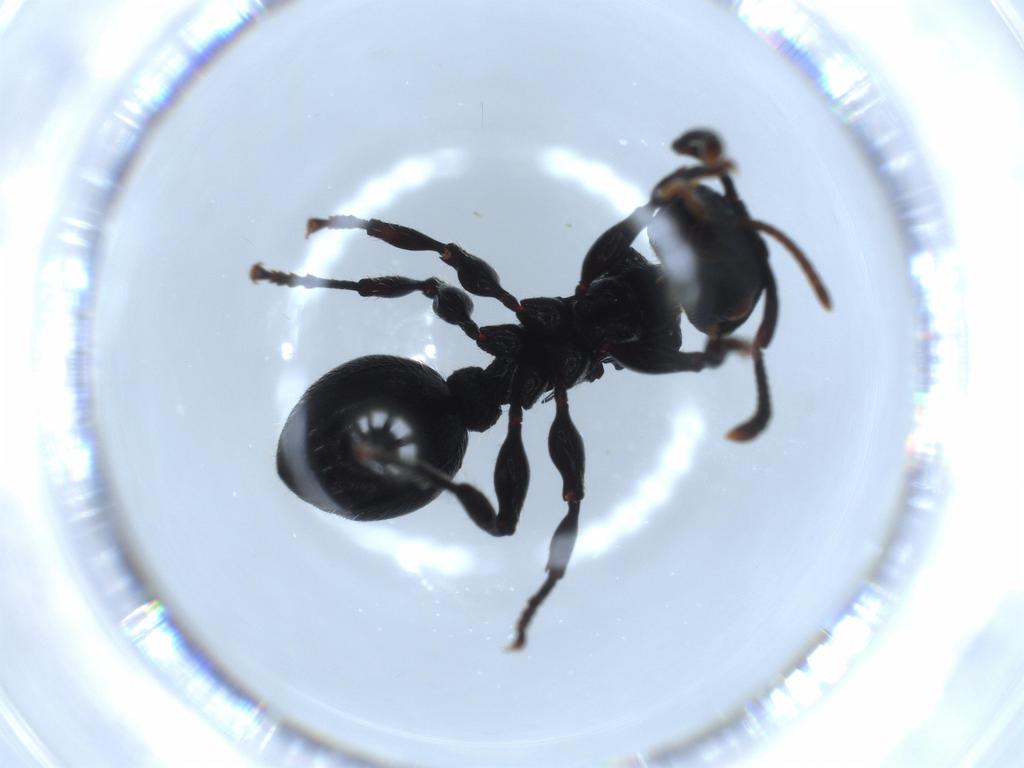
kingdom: Animalia
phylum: Arthropoda
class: Insecta
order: Hymenoptera
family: Formicidae
